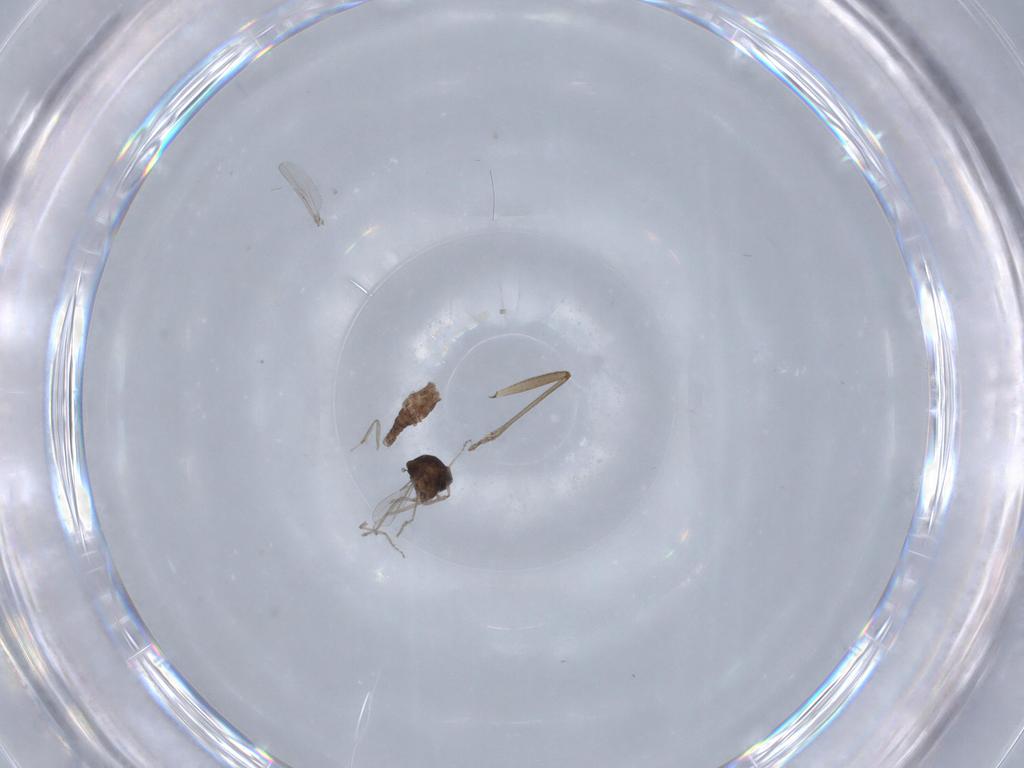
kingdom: Animalia
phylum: Arthropoda
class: Insecta
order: Diptera
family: Ceratopogonidae
